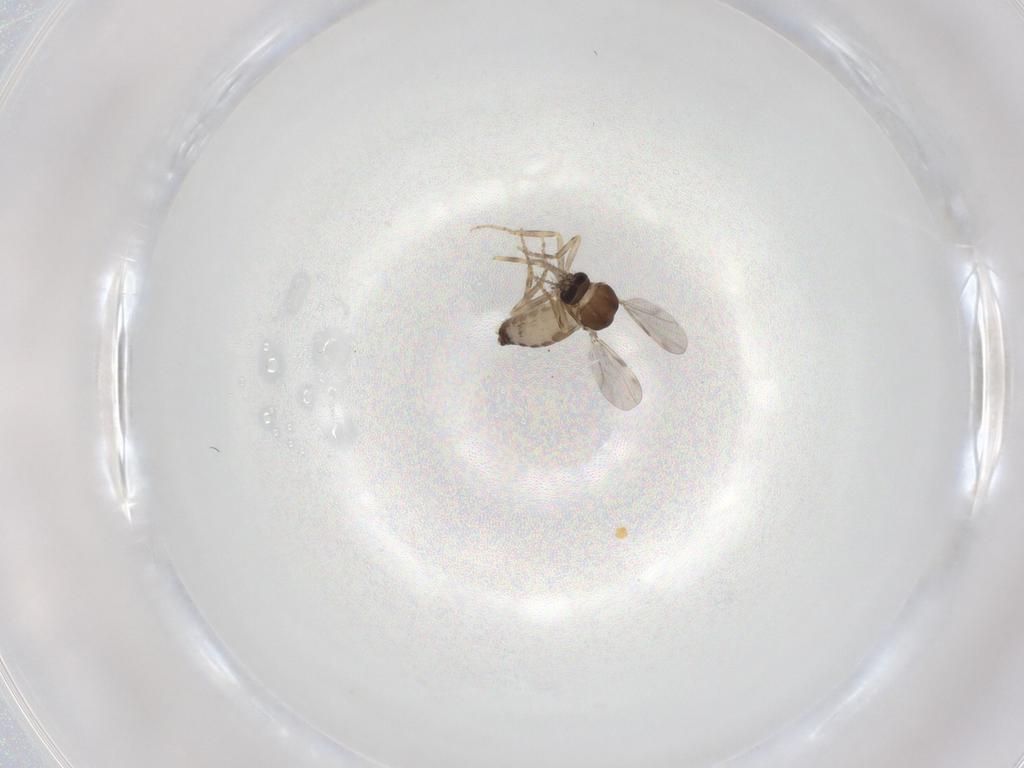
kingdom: Animalia
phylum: Arthropoda
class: Insecta
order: Diptera
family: Ceratopogonidae
